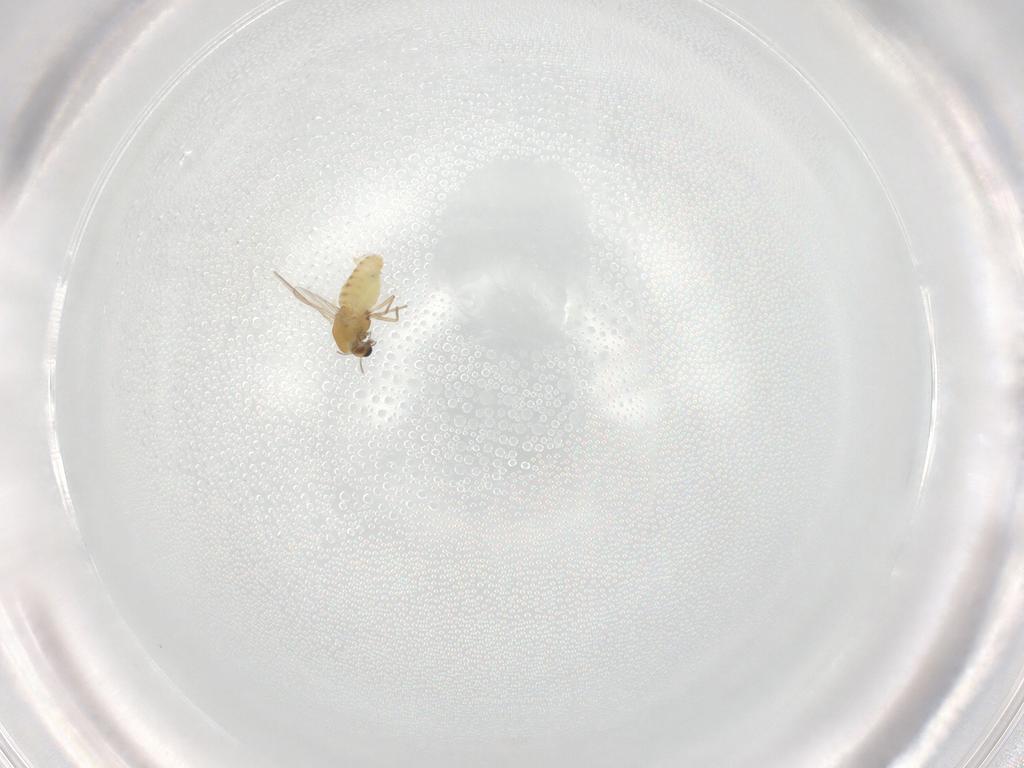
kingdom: Animalia
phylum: Arthropoda
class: Insecta
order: Diptera
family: Chironomidae
